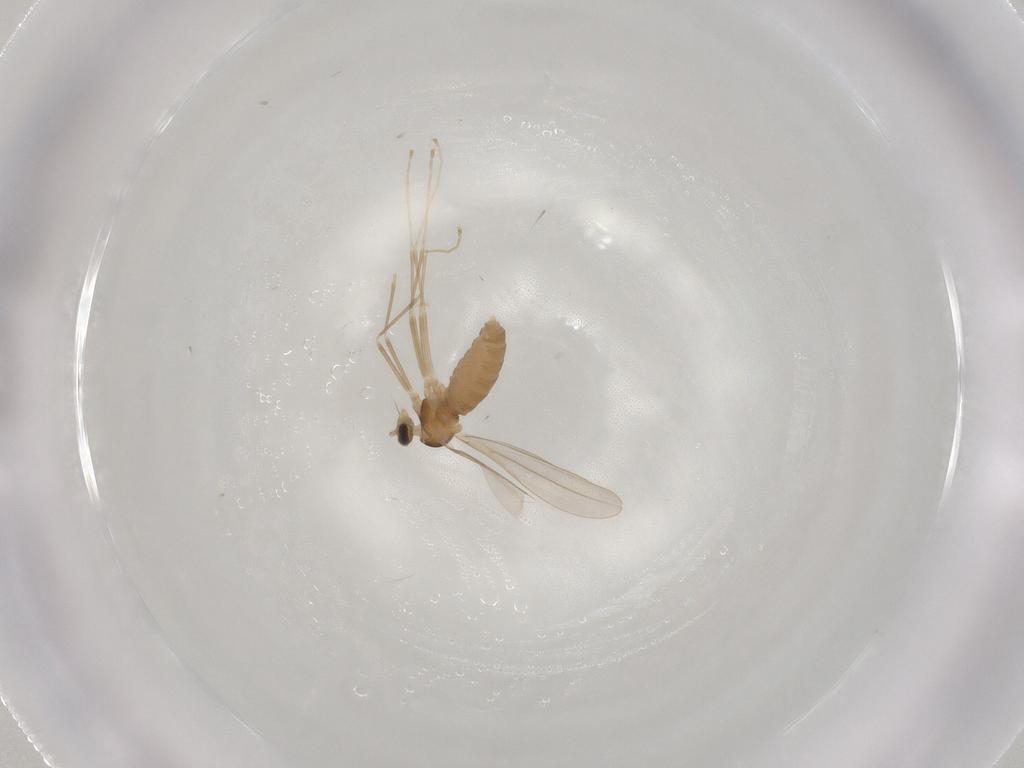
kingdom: Animalia
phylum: Arthropoda
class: Insecta
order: Diptera
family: Cecidomyiidae
